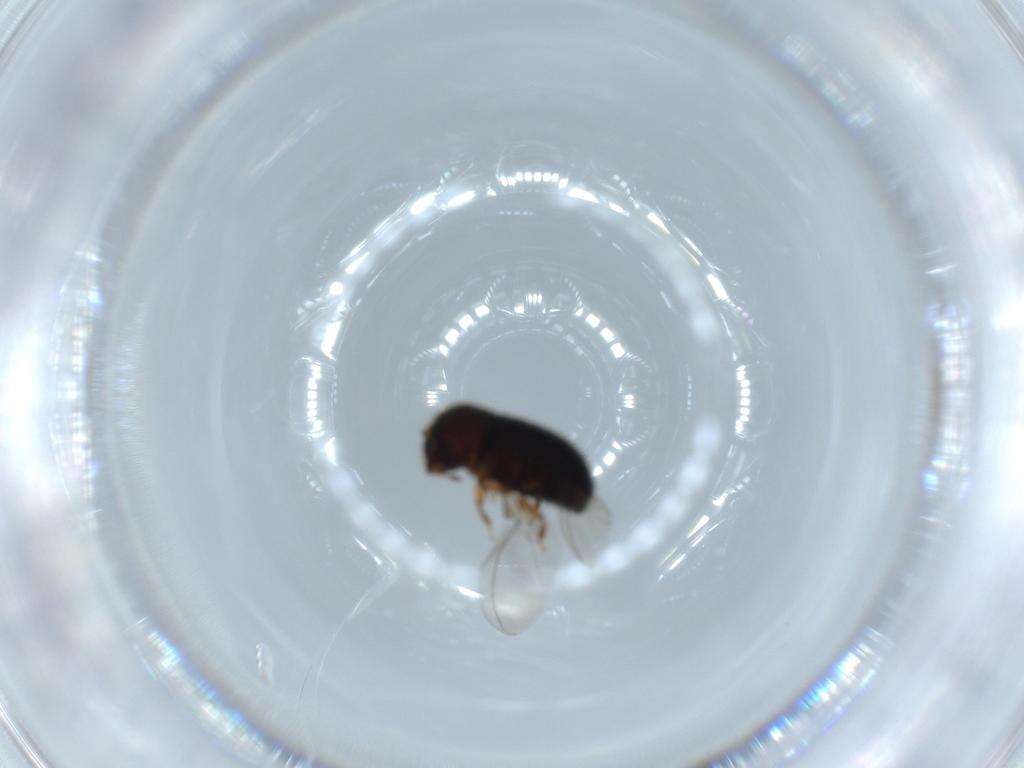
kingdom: Animalia
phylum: Arthropoda
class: Insecta
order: Coleoptera
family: Curculionidae
